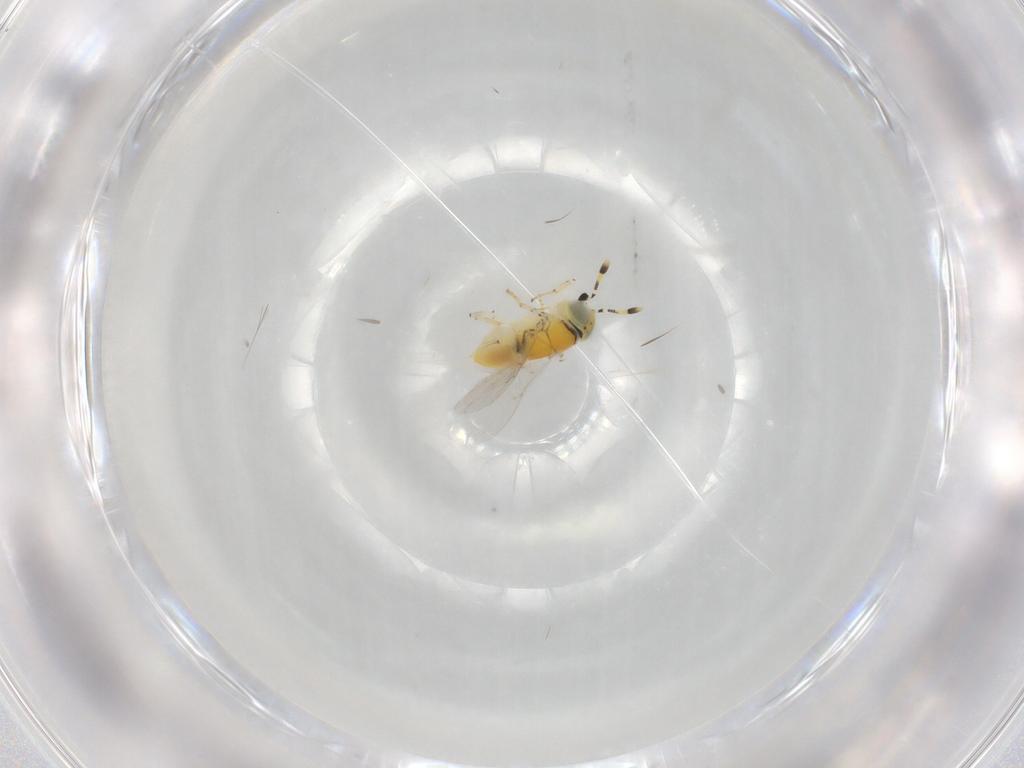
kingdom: Animalia
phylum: Arthropoda
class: Insecta
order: Hymenoptera
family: Encyrtidae
